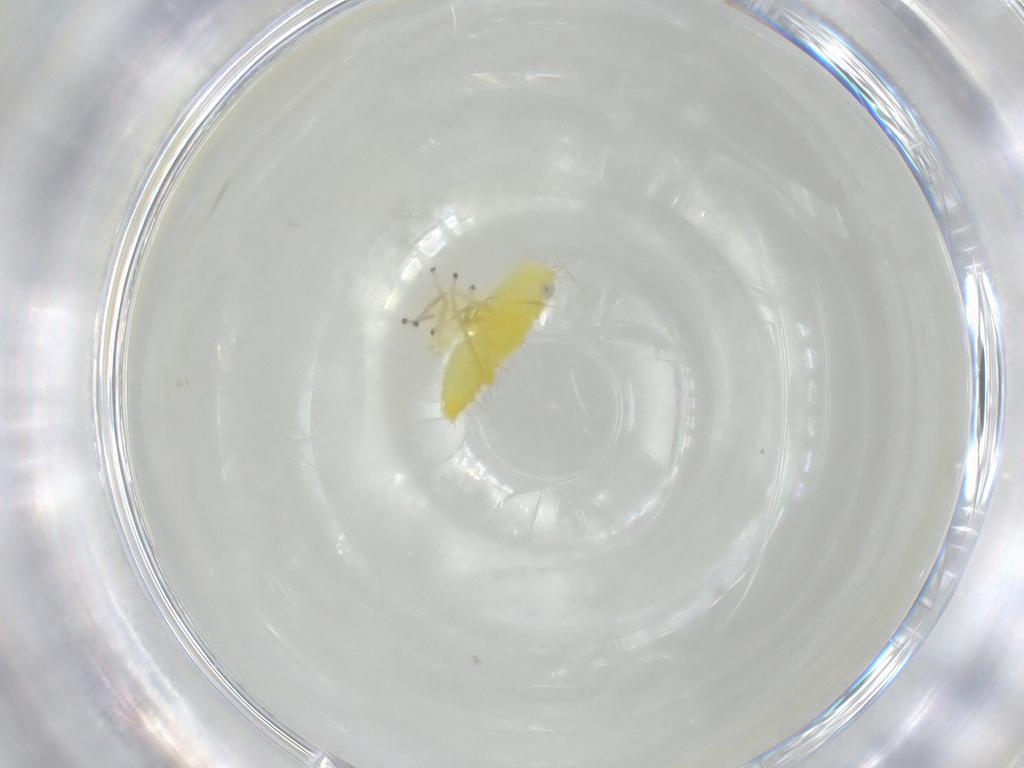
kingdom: Animalia
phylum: Arthropoda
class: Insecta
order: Hemiptera
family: Cicadellidae
